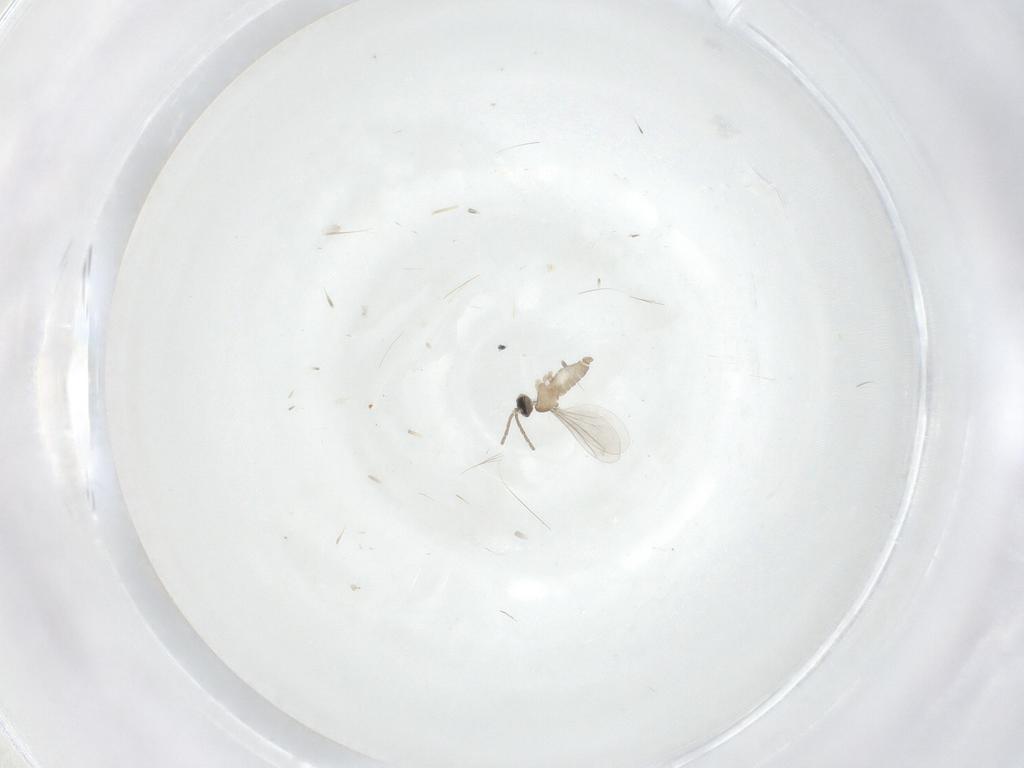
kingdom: Animalia
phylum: Arthropoda
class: Insecta
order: Diptera
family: Cecidomyiidae
